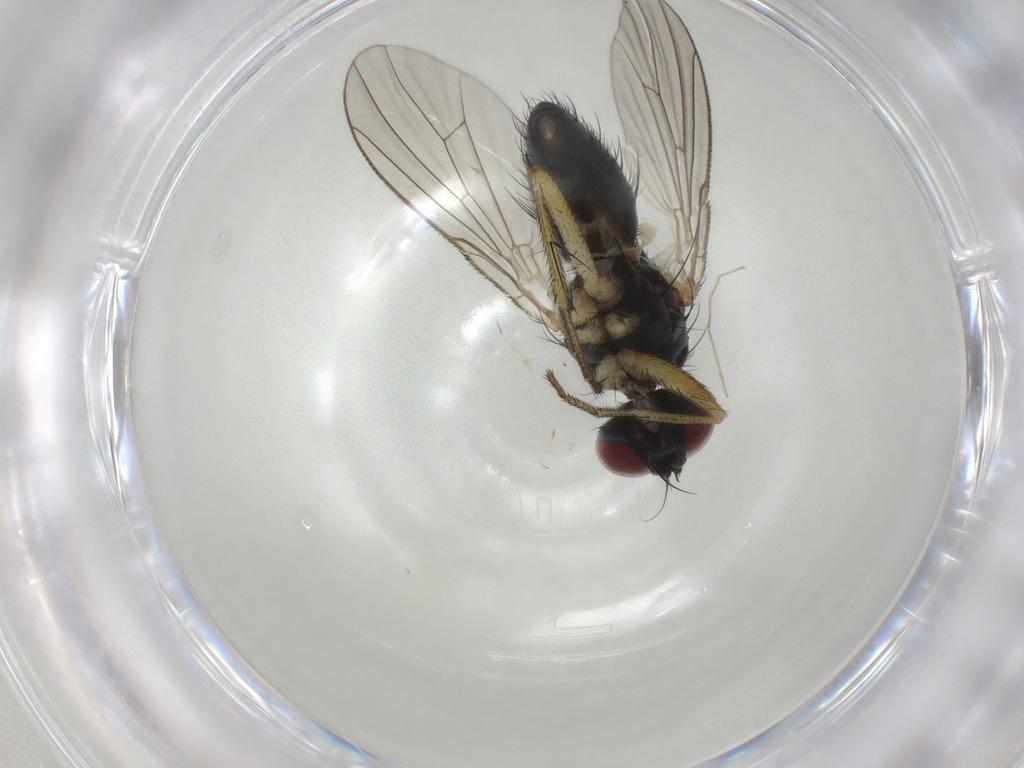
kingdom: Animalia
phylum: Arthropoda
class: Insecta
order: Diptera
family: Muscidae
